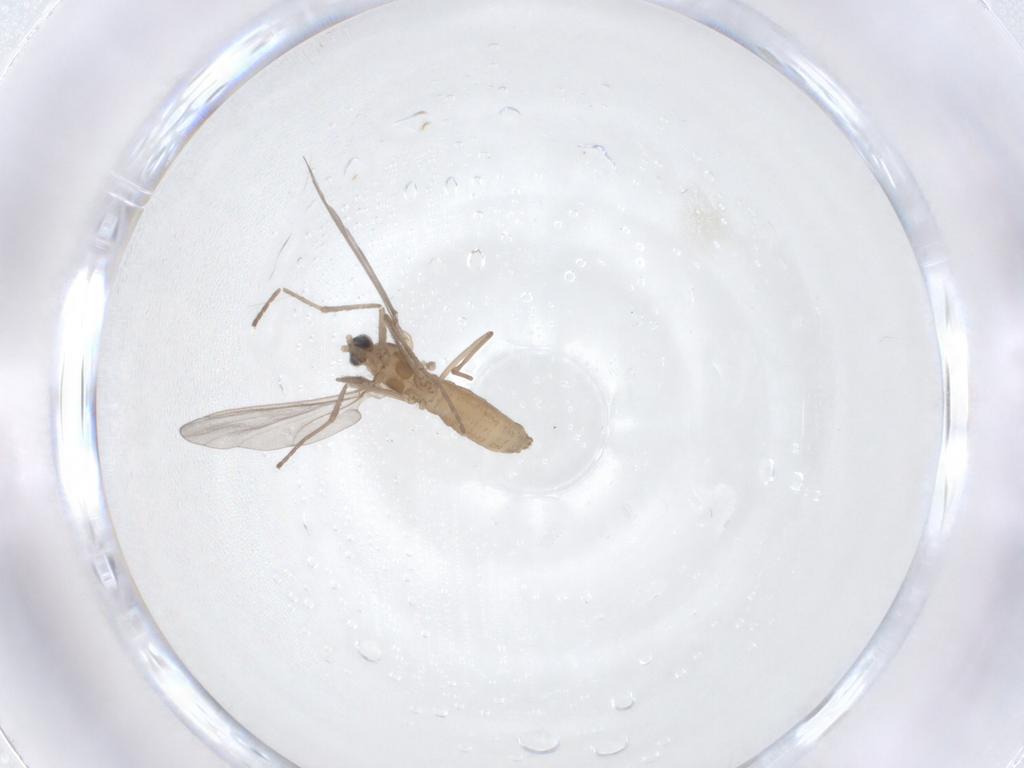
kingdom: Animalia
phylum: Arthropoda
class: Insecta
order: Diptera
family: Cecidomyiidae
